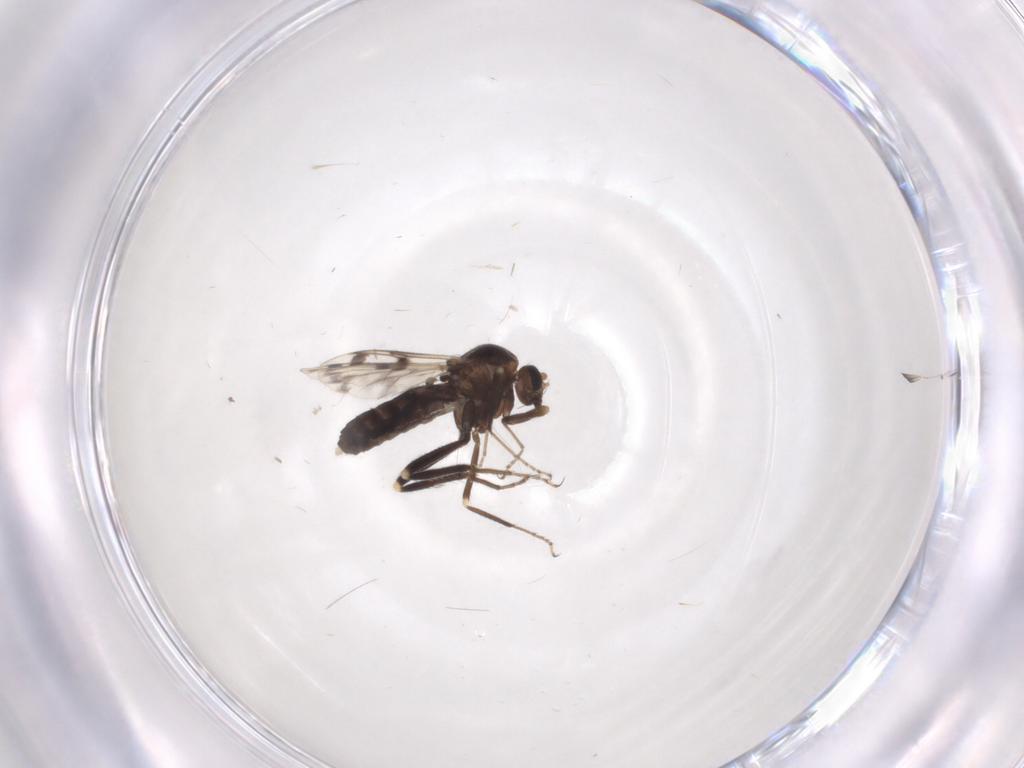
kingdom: Animalia
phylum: Arthropoda
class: Insecta
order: Diptera
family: Ceratopogonidae
